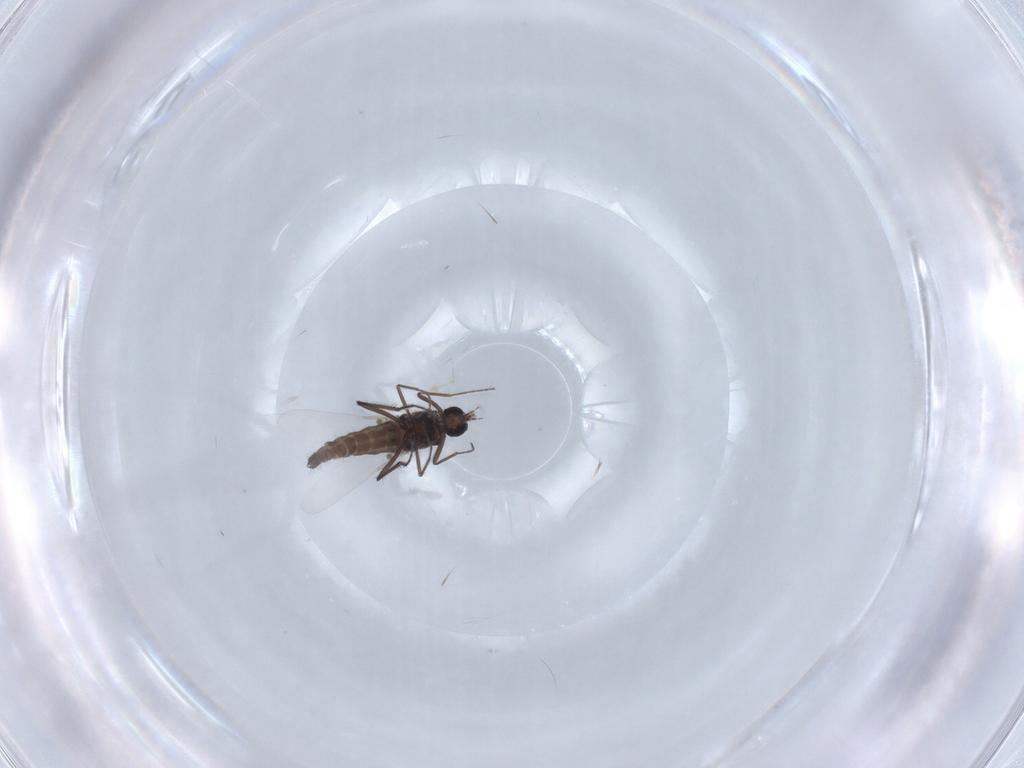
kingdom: Animalia
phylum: Arthropoda
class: Insecta
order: Diptera
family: Ceratopogonidae
